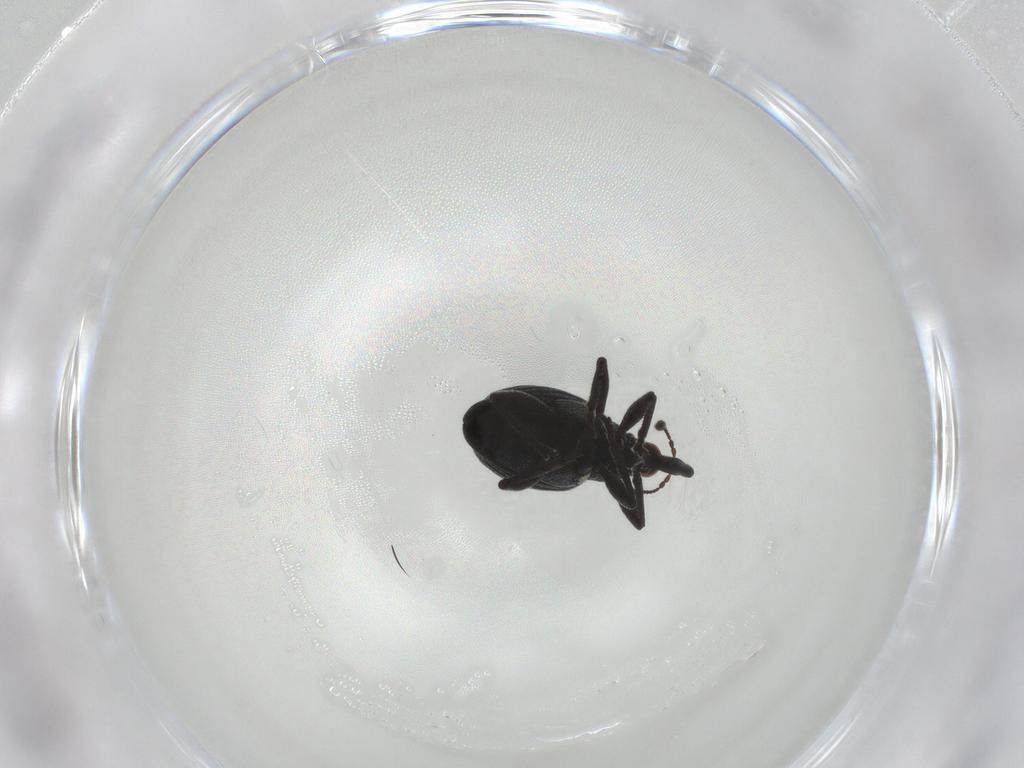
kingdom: Animalia
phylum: Arthropoda
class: Insecta
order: Coleoptera
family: Brentidae
